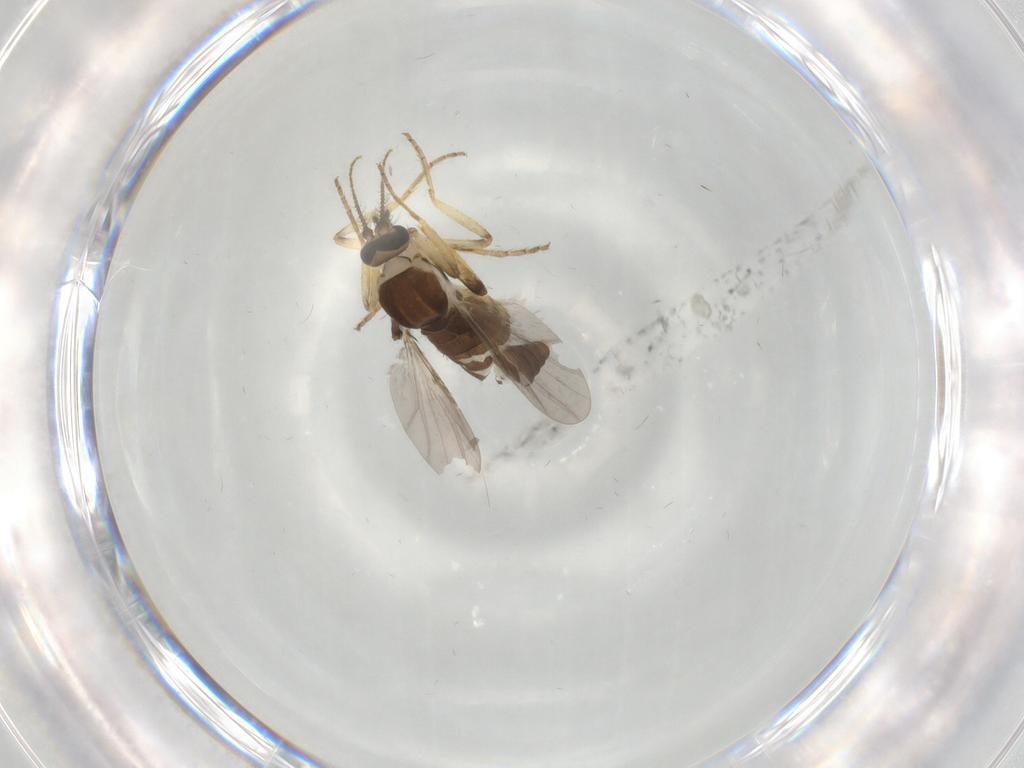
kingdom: Animalia
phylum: Arthropoda
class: Insecta
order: Diptera
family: Ceratopogonidae
